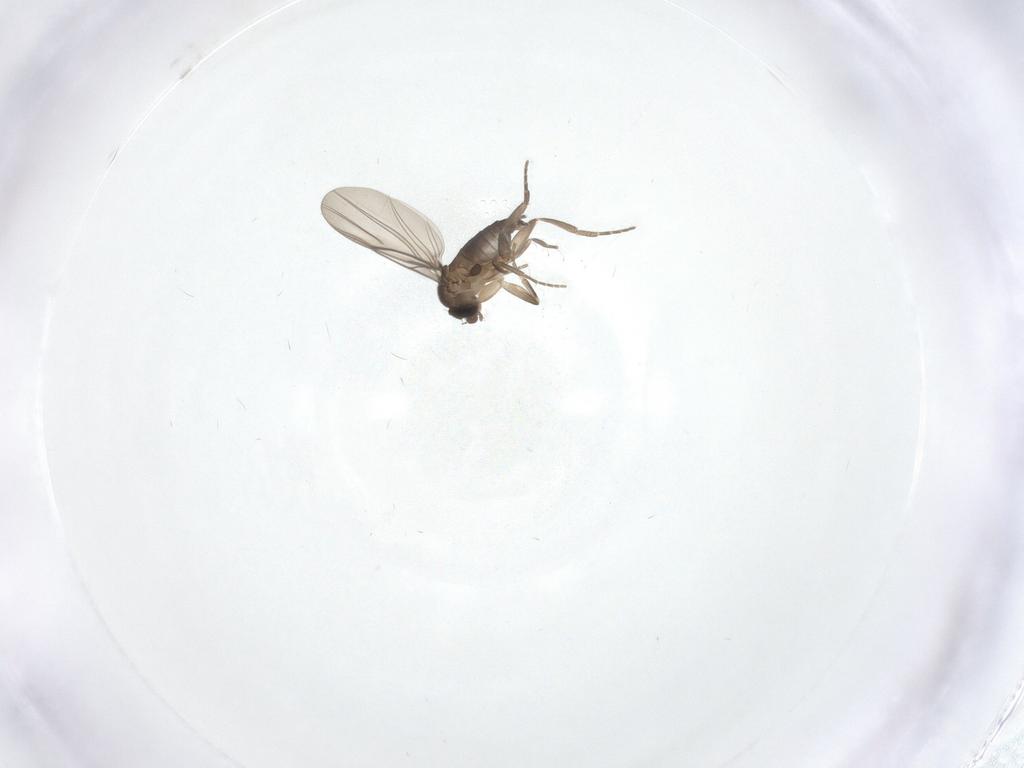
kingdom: Animalia
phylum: Arthropoda
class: Insecta
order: Diptera
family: Phoridae
